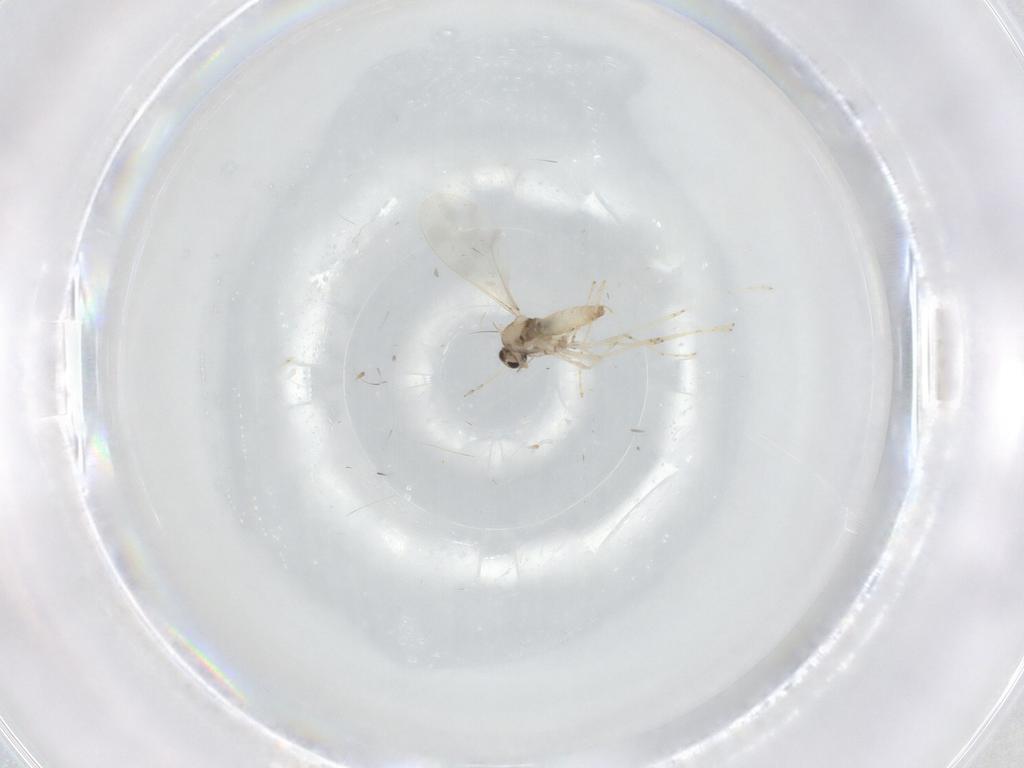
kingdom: Animalia
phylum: Arthropoda
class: Insecta
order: Diptera
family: Cecidomyiidae
